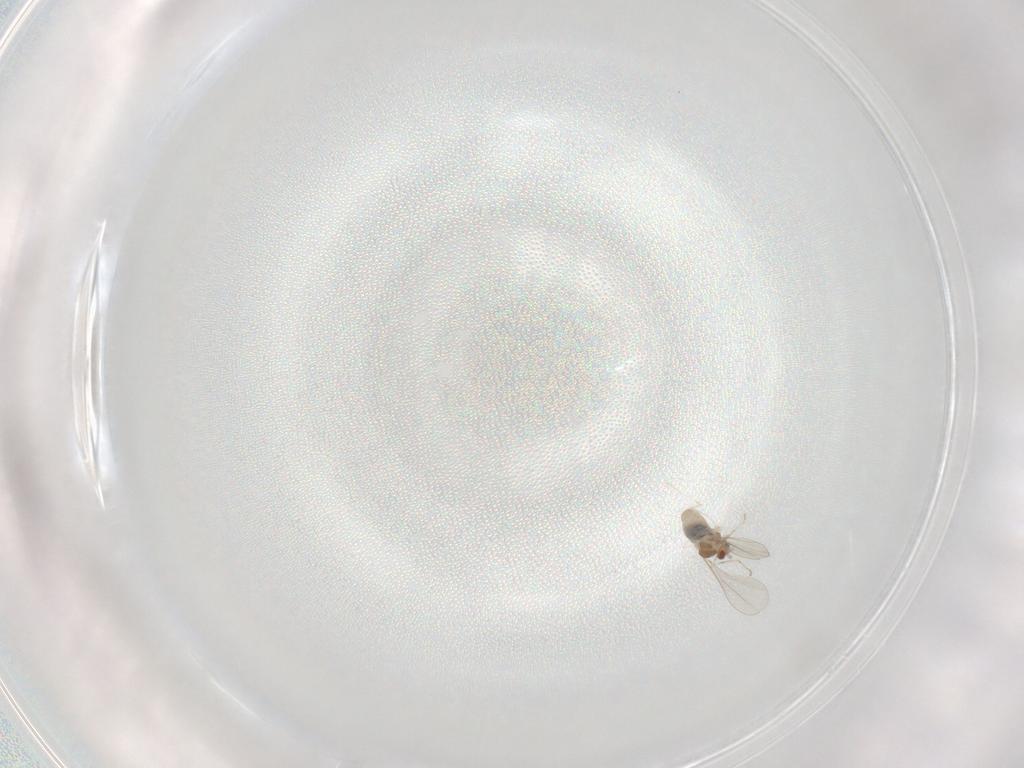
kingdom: Animalia
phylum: Arthropoda
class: Insecta
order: Diptera
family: Cecidomyiidae
